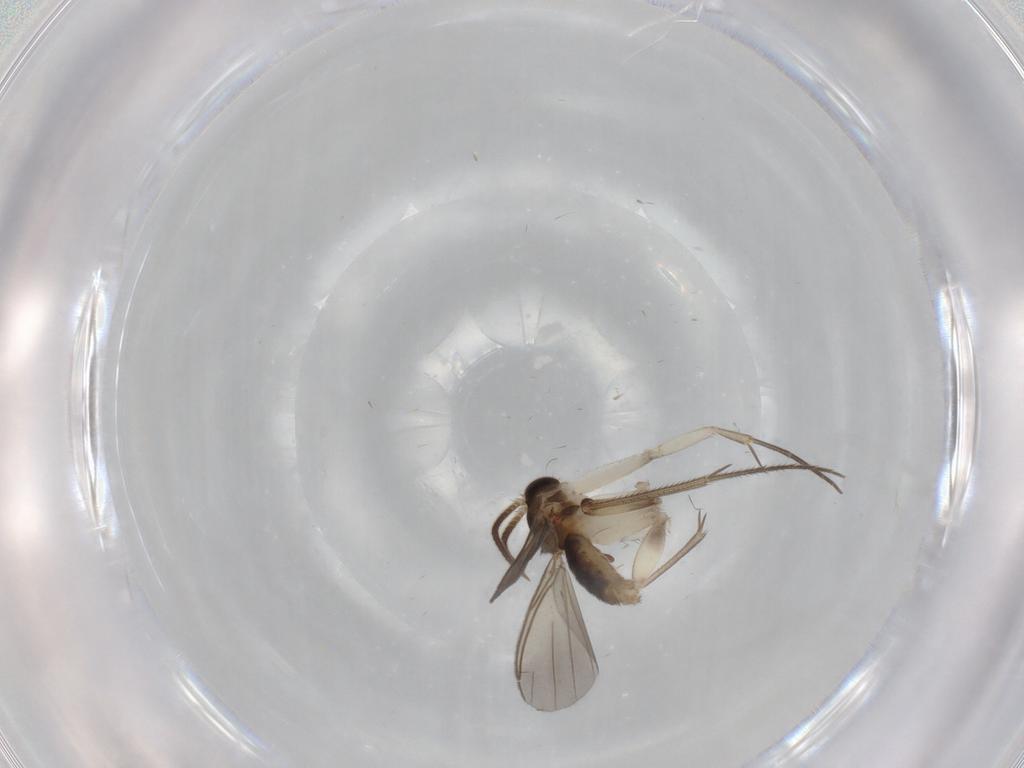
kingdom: Animalia
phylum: Arthropoda
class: Insecta
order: Diptera
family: Mycetophilidae
